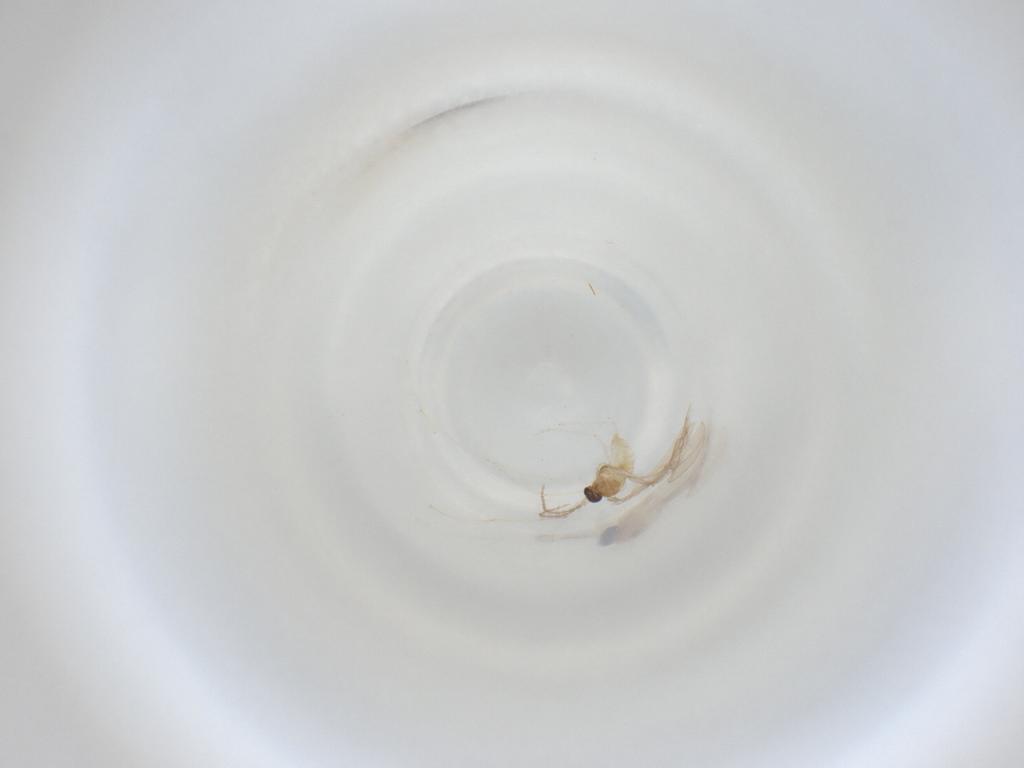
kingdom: Animalia
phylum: Arthropoda
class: Insecta
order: Diptera
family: Cecidomyiidae
